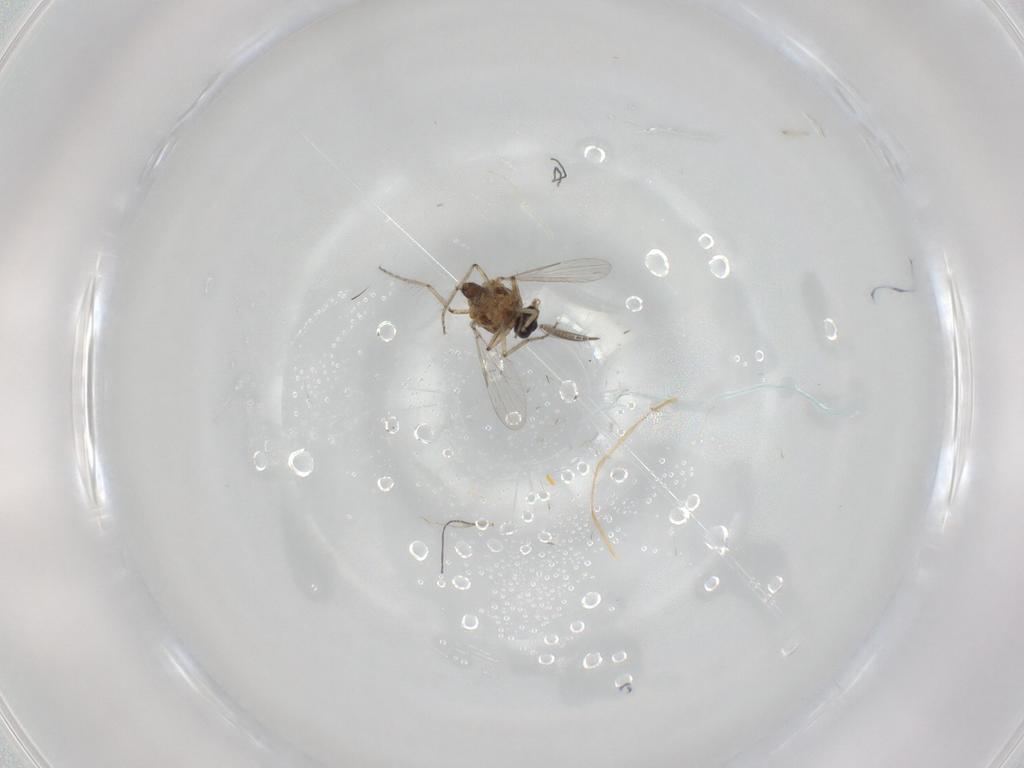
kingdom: Animalia
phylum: Arthropoda
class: Insecta
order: Diptera
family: Ceratopogonidae
